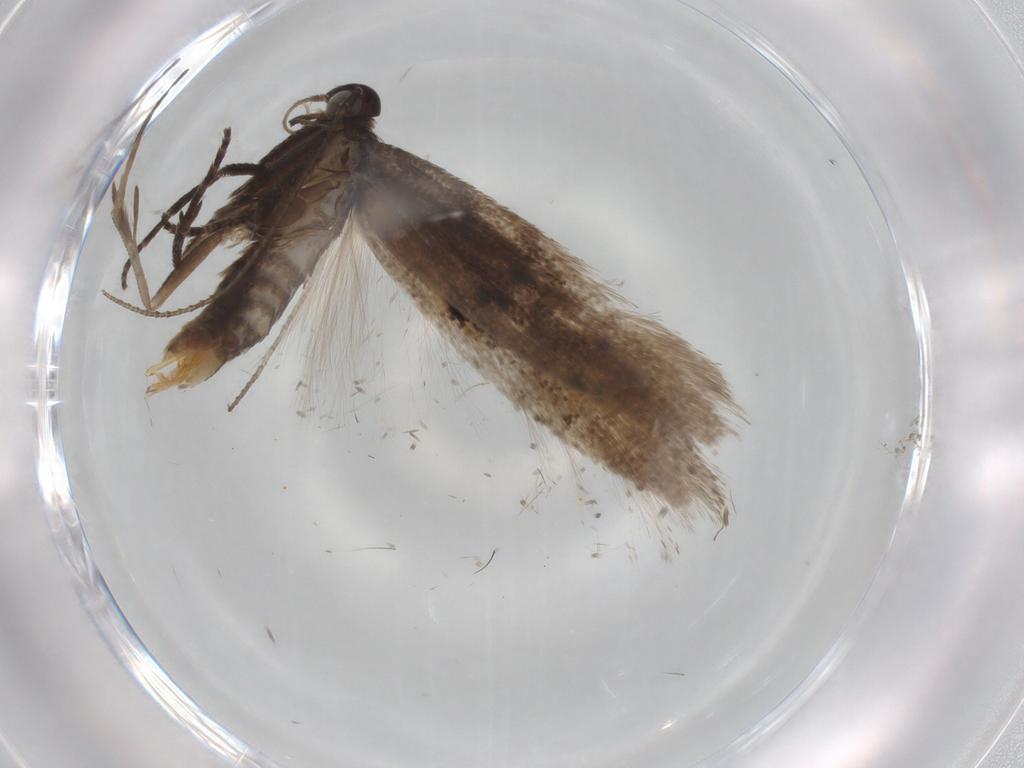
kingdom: Animalia
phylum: Arthropoda
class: Insecta
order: Lepidoptera
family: Gelechiidae
